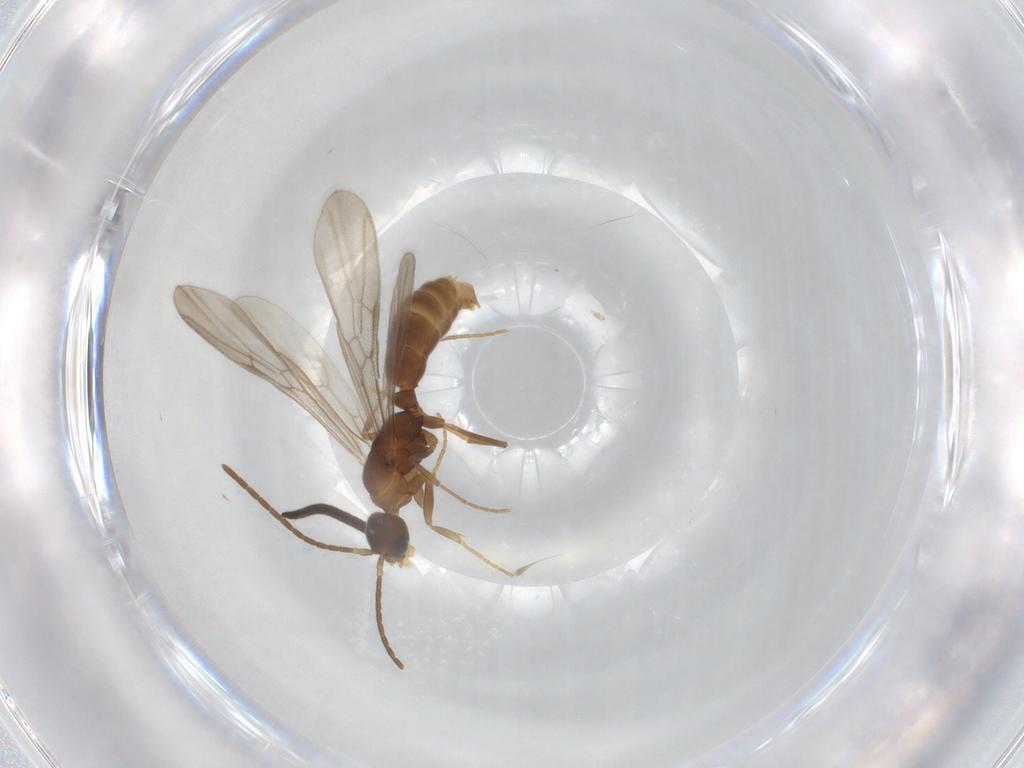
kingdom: Animalia
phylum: Arthropoda
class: Insecta
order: Hymenoptera
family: Formicidae
